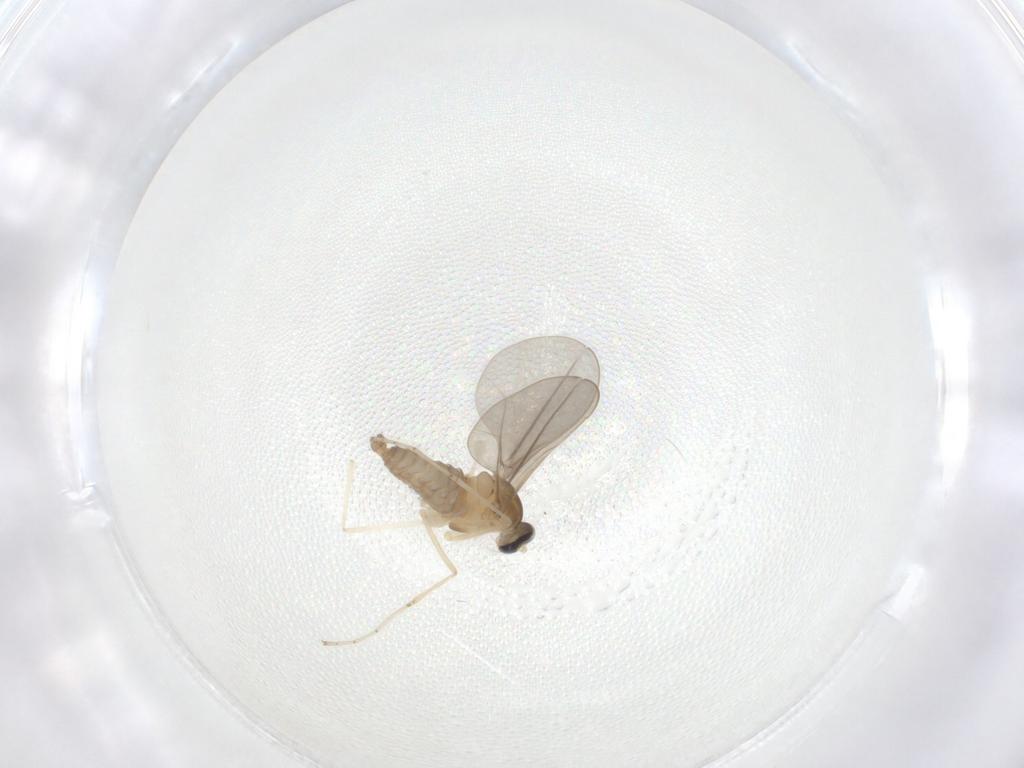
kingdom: Animalia
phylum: Arthropoda
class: Insecta
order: Diptera
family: Cecidomyiidae
